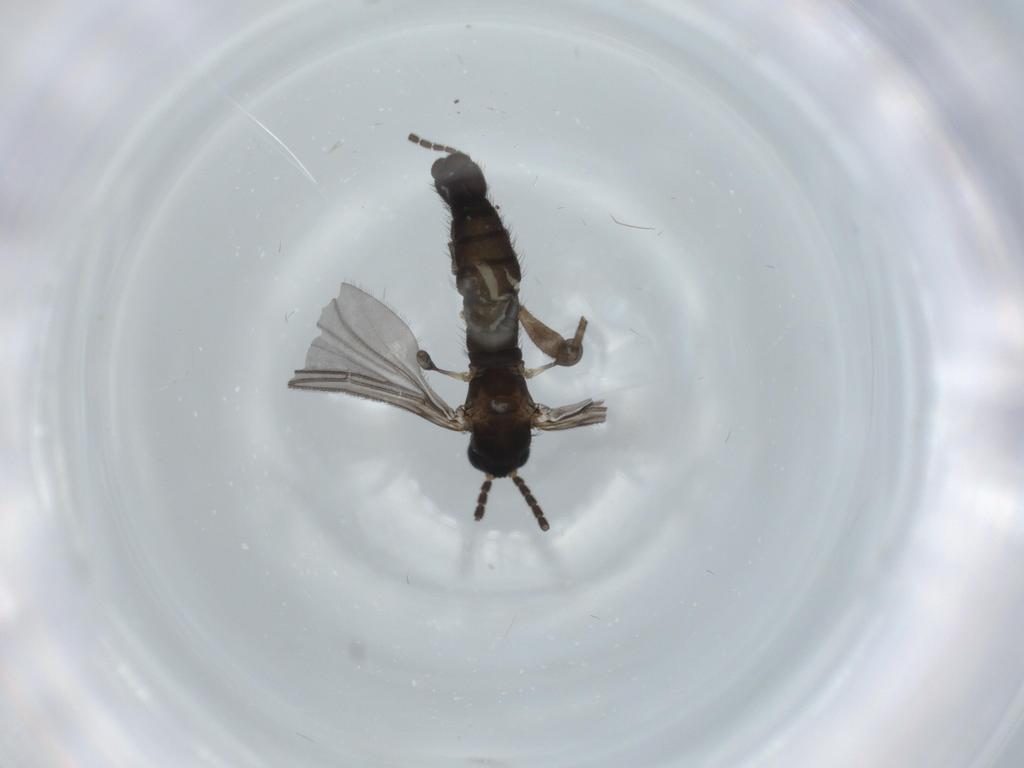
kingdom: Animalia
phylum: Arthropoda
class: Insecta
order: Diptera
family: Sciaridae
